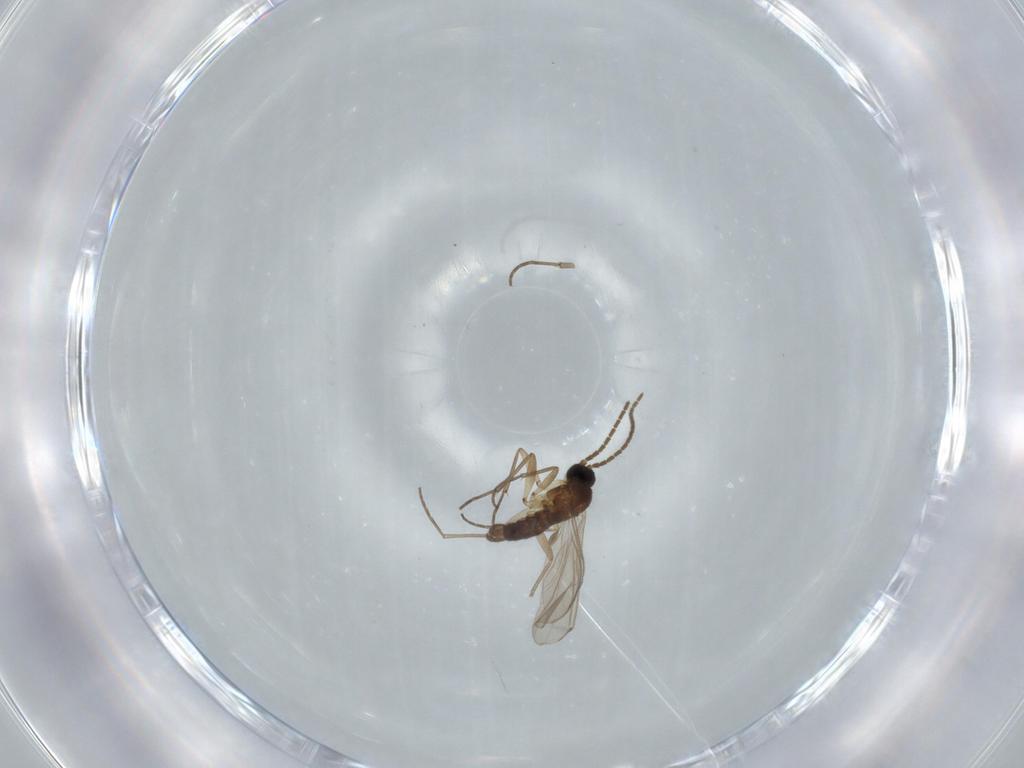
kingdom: Animalia
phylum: Arthropoda
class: Insecta
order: Diptera
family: Sciaridae
